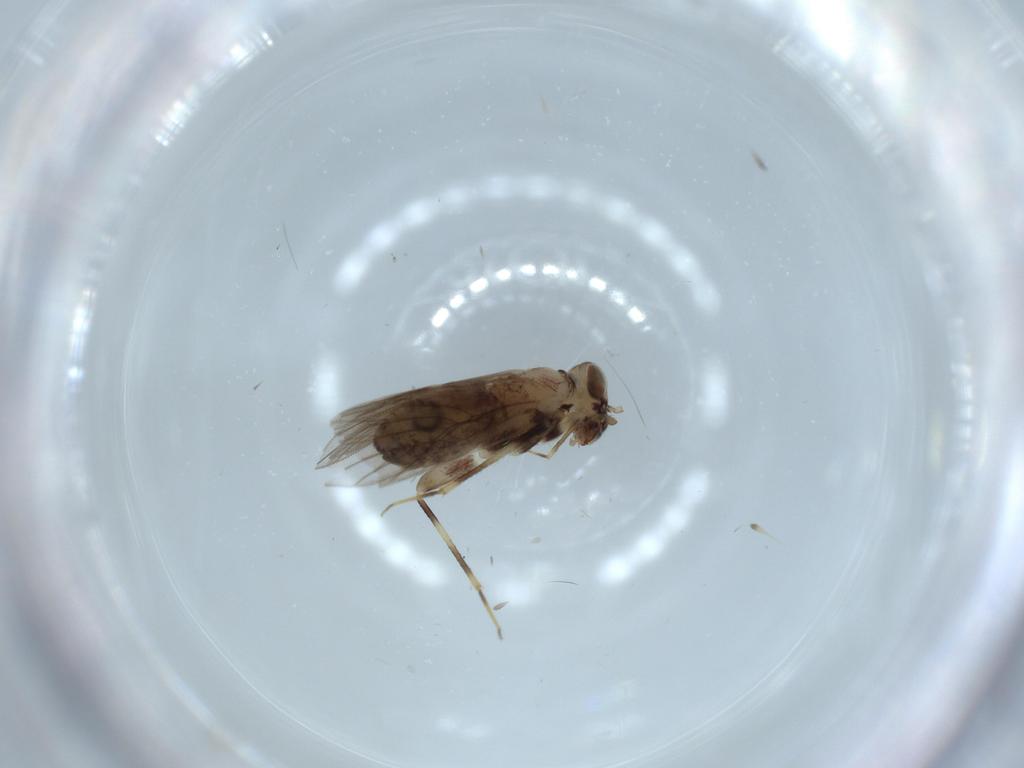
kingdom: Animalia
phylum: Arthropoda
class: Insecta
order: Psocodea
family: Lepidopsocidae
